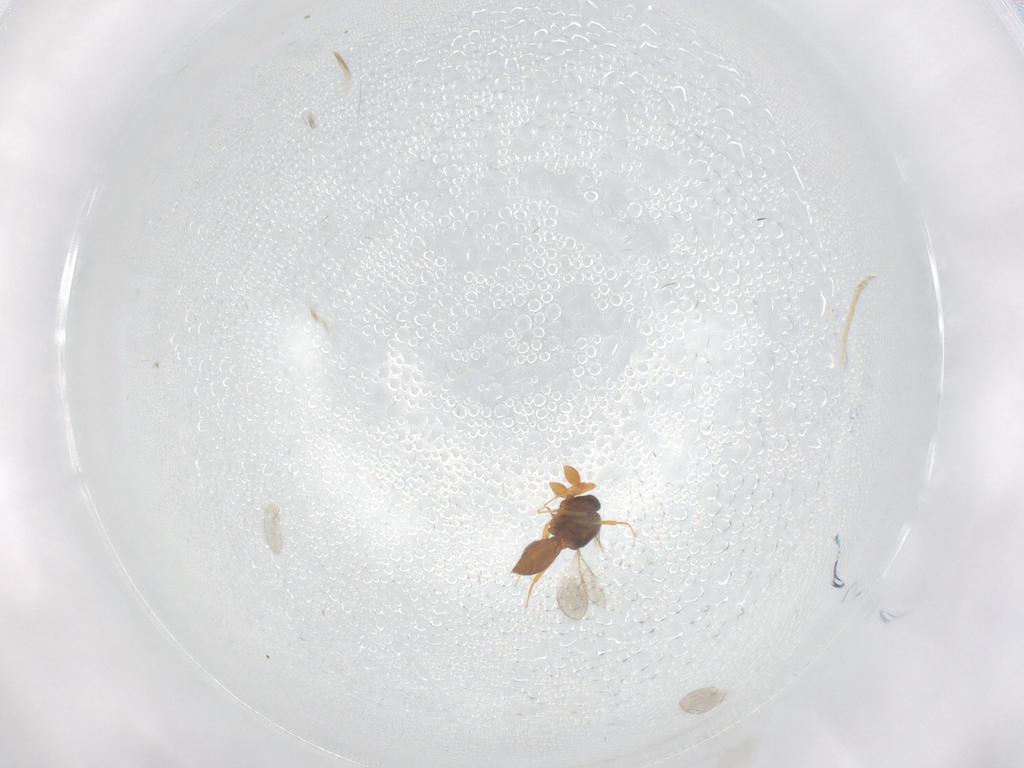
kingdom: Animalia
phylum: Arthropoda
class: Insecta
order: Hymenoptera
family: Scelionidae
